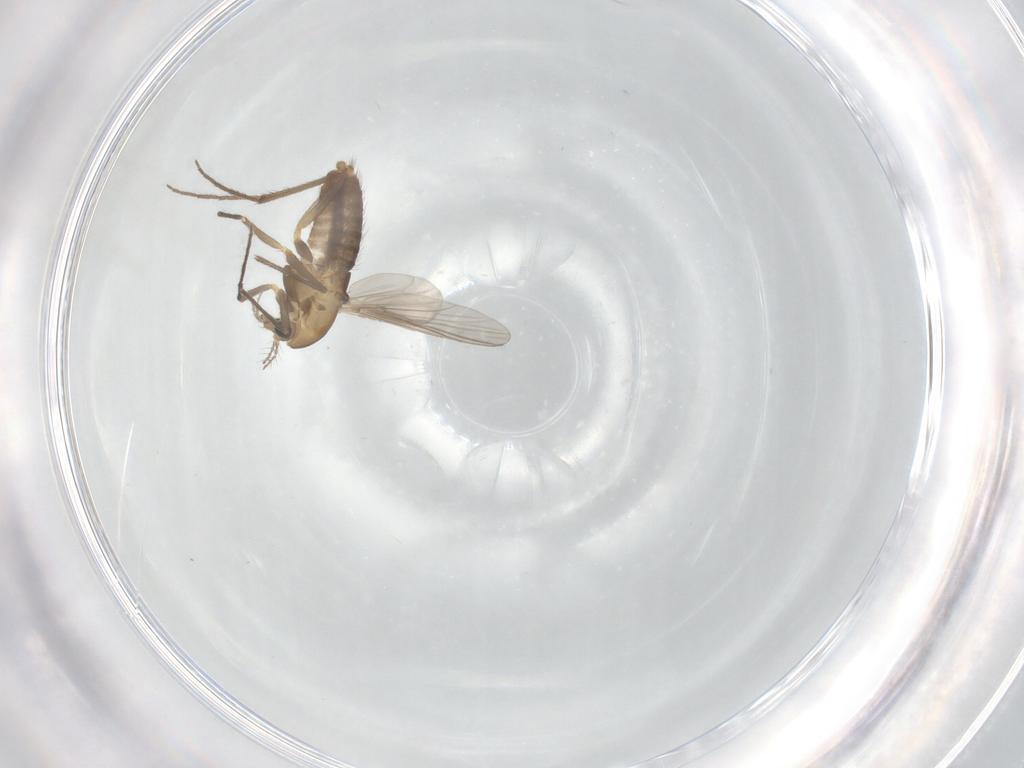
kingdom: Animalia
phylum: Arthropoda
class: Insecta
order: Diptera
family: Chironomidae
